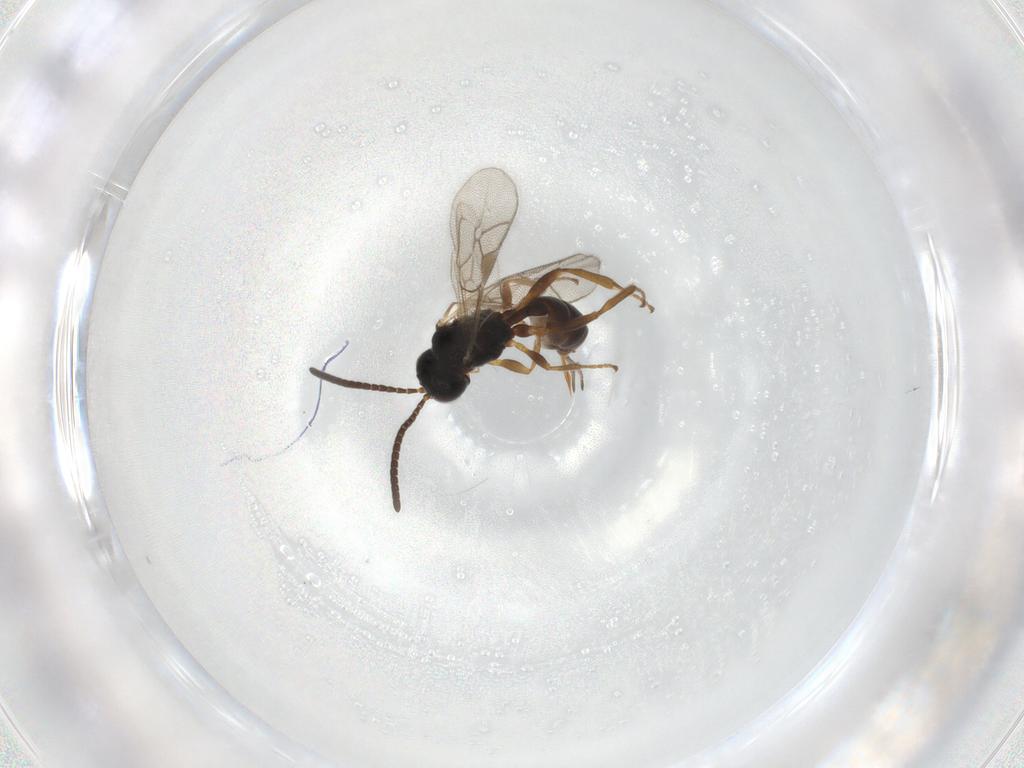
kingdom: Animalia
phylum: Arthropoda
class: Insecta
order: Hymenoptera
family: Ichneumonidae
